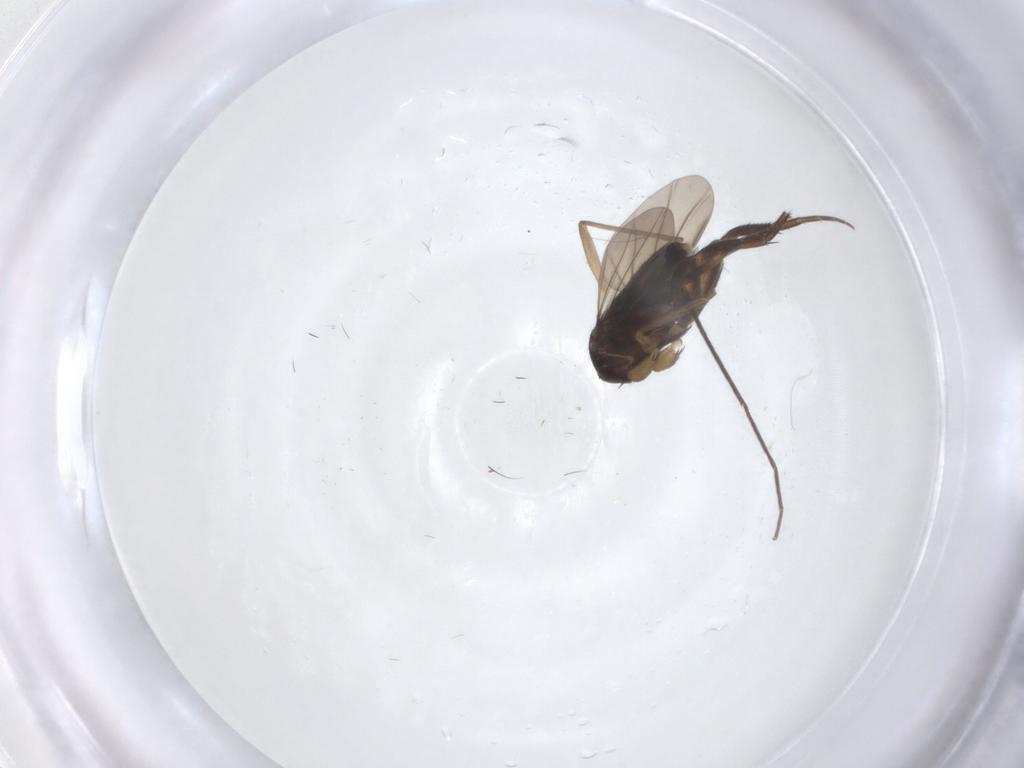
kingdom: Animalia
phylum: Arthropoda
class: Insecta
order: Diptera
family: Phoridae
